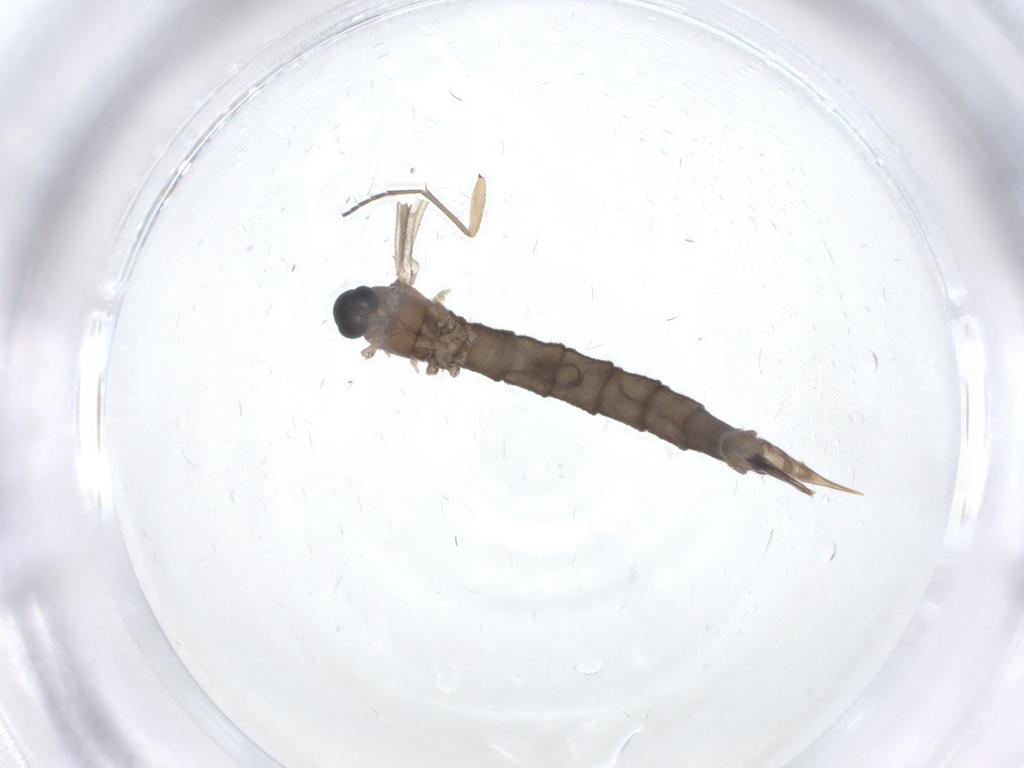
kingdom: Animalia
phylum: Arthropoda
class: Insecta
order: Diptera
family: Limoniidae
